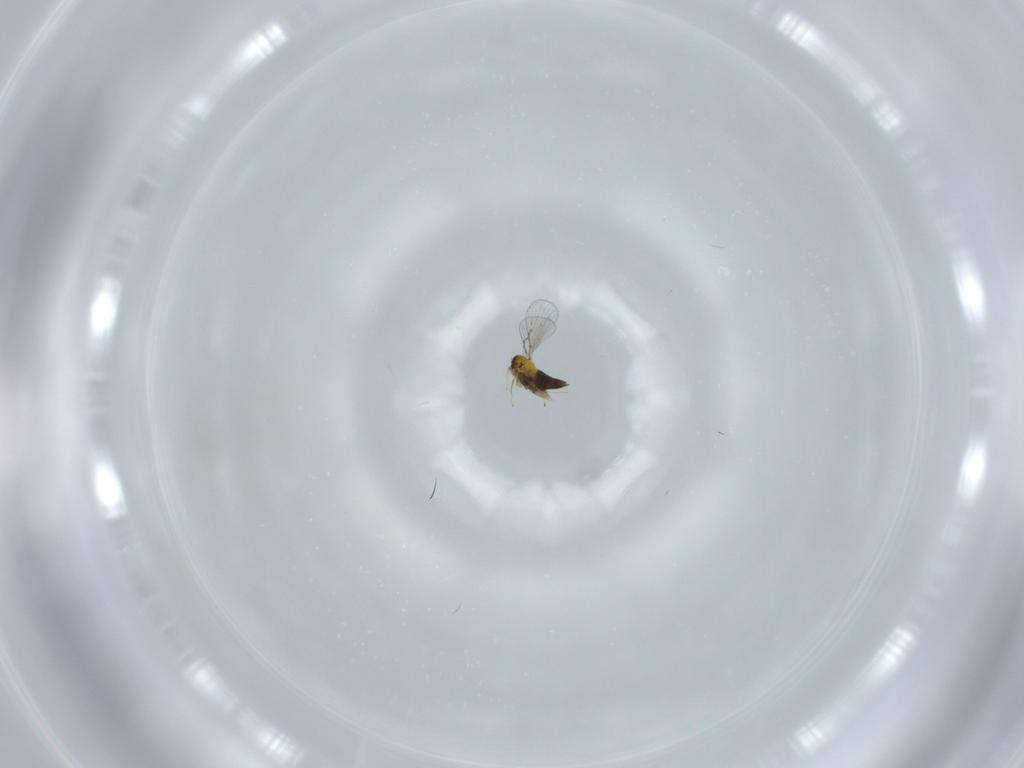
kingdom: Animalia
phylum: Arthropoda
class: Insecta
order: Hymenoptera
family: Trichogrammatidae
